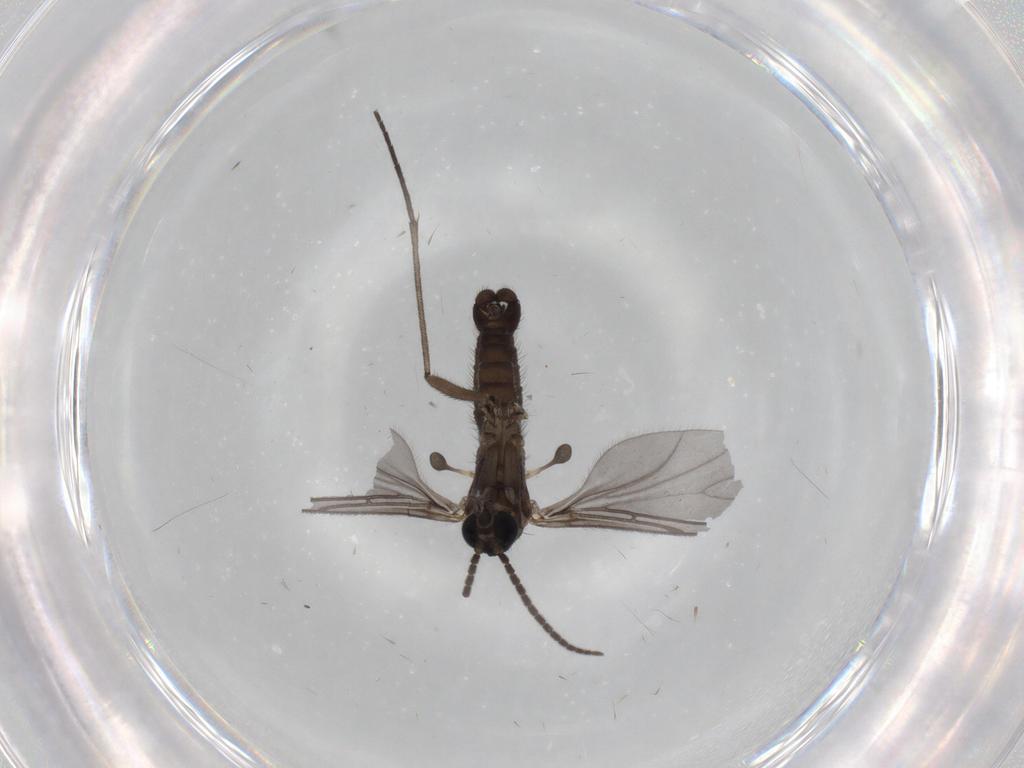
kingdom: Animalia
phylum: Arthropoda
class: Insecta
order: Diptera
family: Sciaridae
